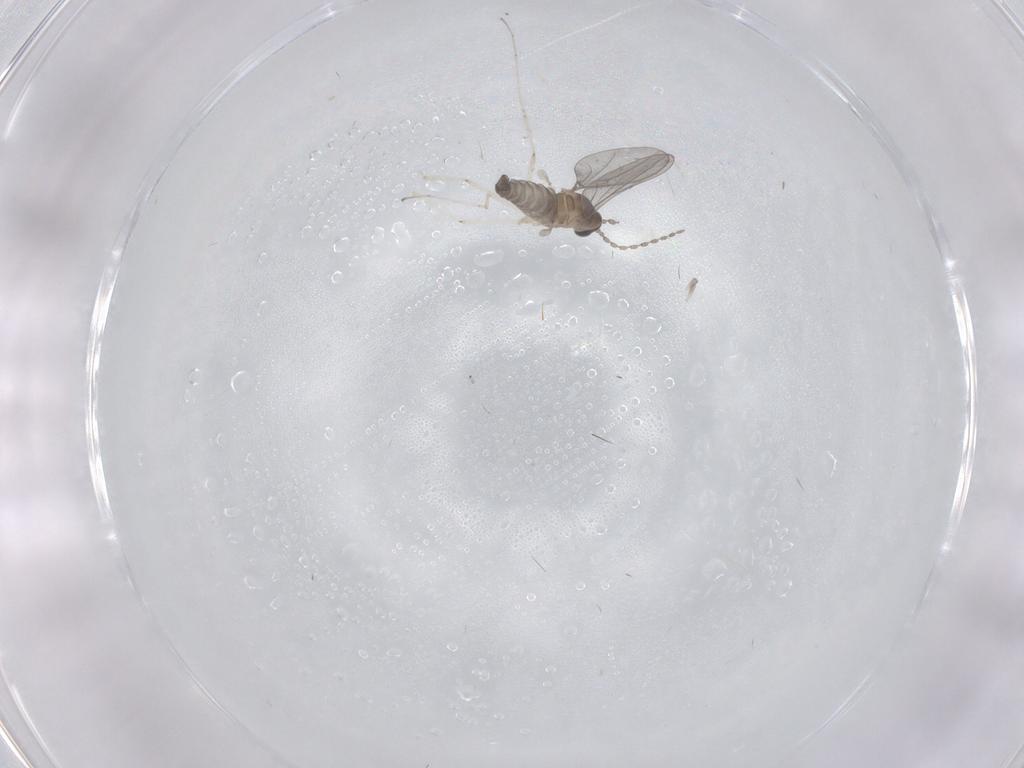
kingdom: Animalia
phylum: Arthropoda
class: Insecta
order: Diptera
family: Cecidomyiidae
